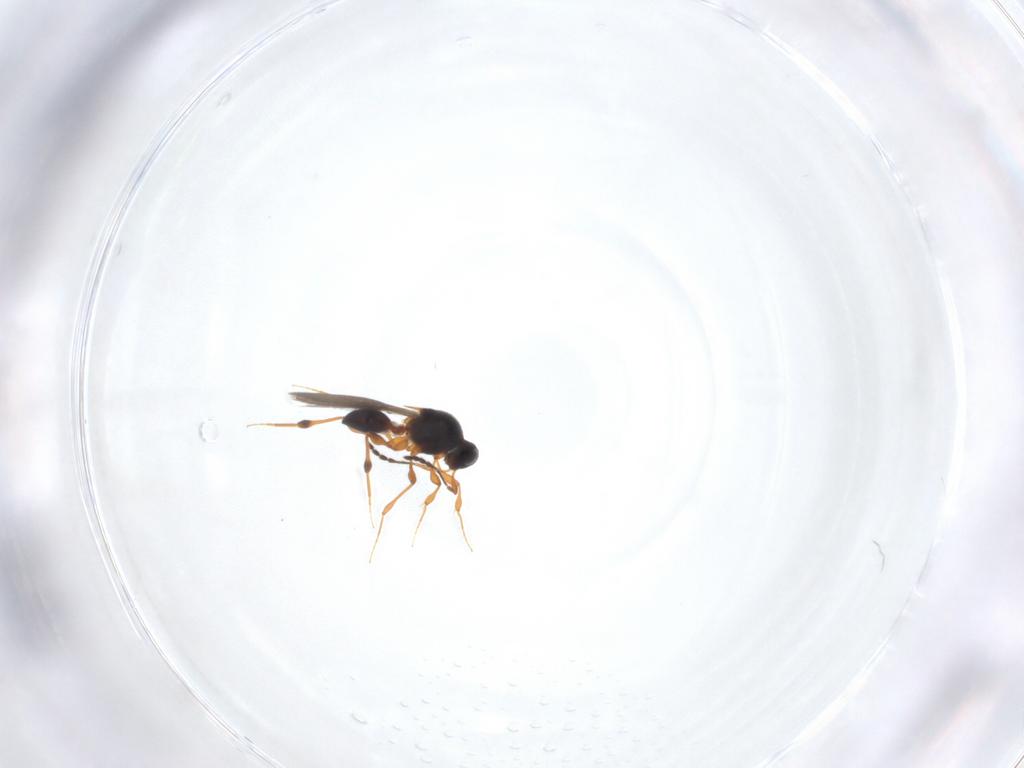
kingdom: Animalia
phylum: Arthropoda
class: Insecta
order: Hymenoptera
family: Platygastridae
